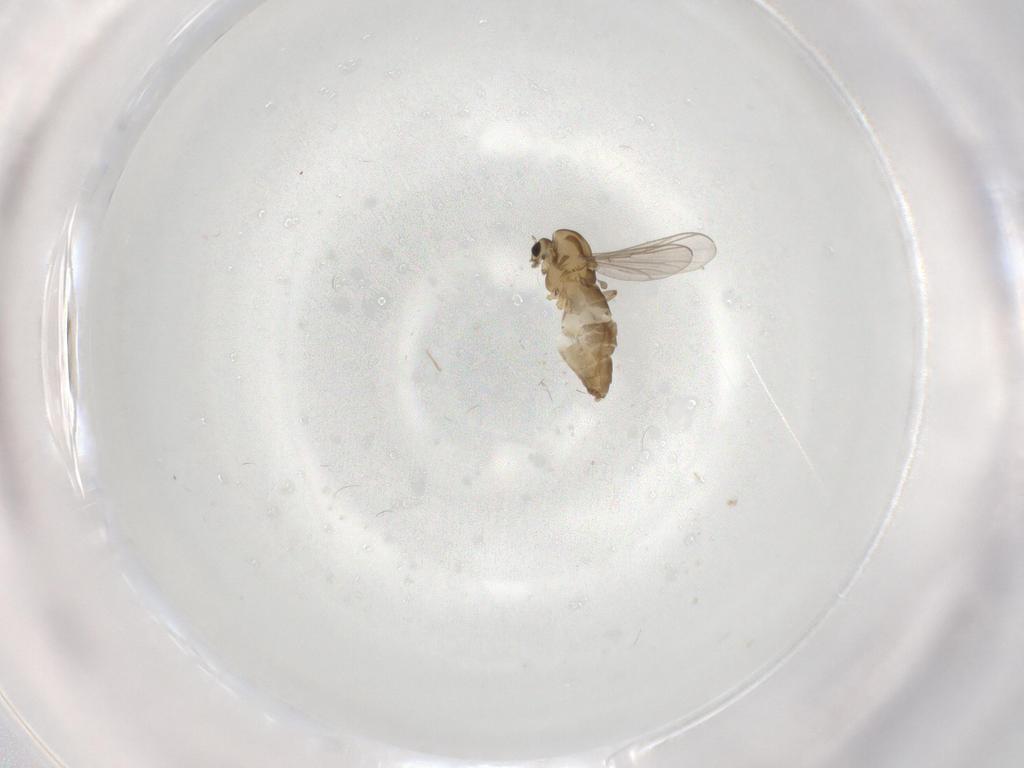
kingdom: Animalia
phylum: Arthropoda
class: Insecta
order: Diptera
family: Chironomidae
